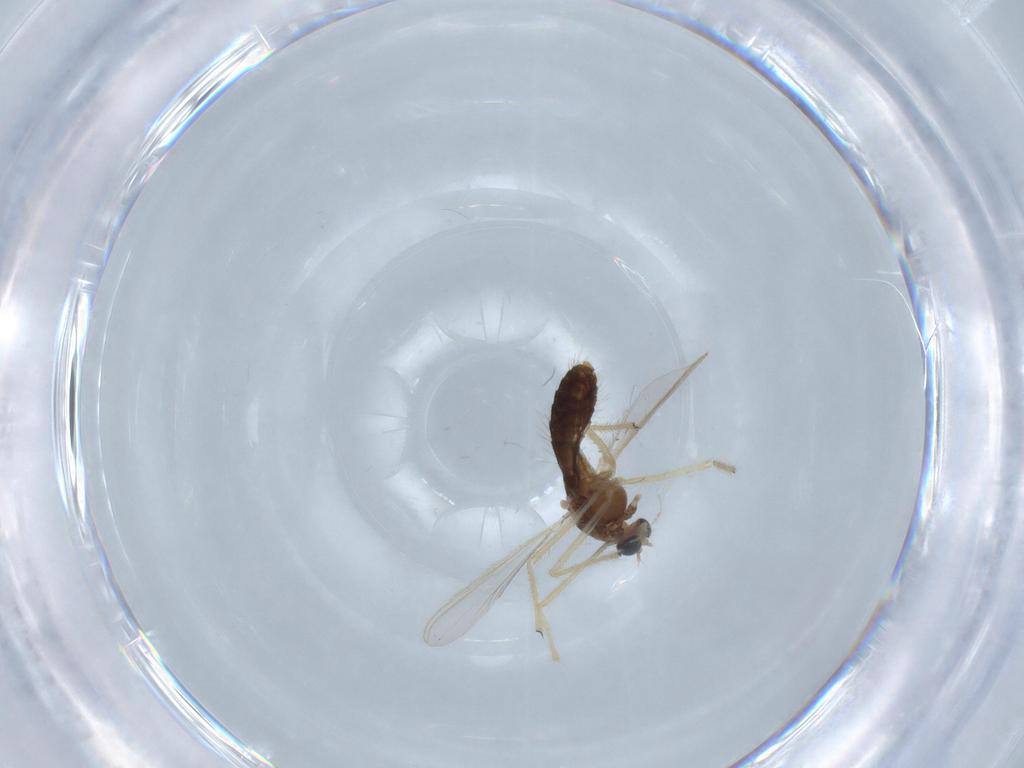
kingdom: Animalia
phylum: Arthropoda
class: Insecta
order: Diptera
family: Chironomidae
